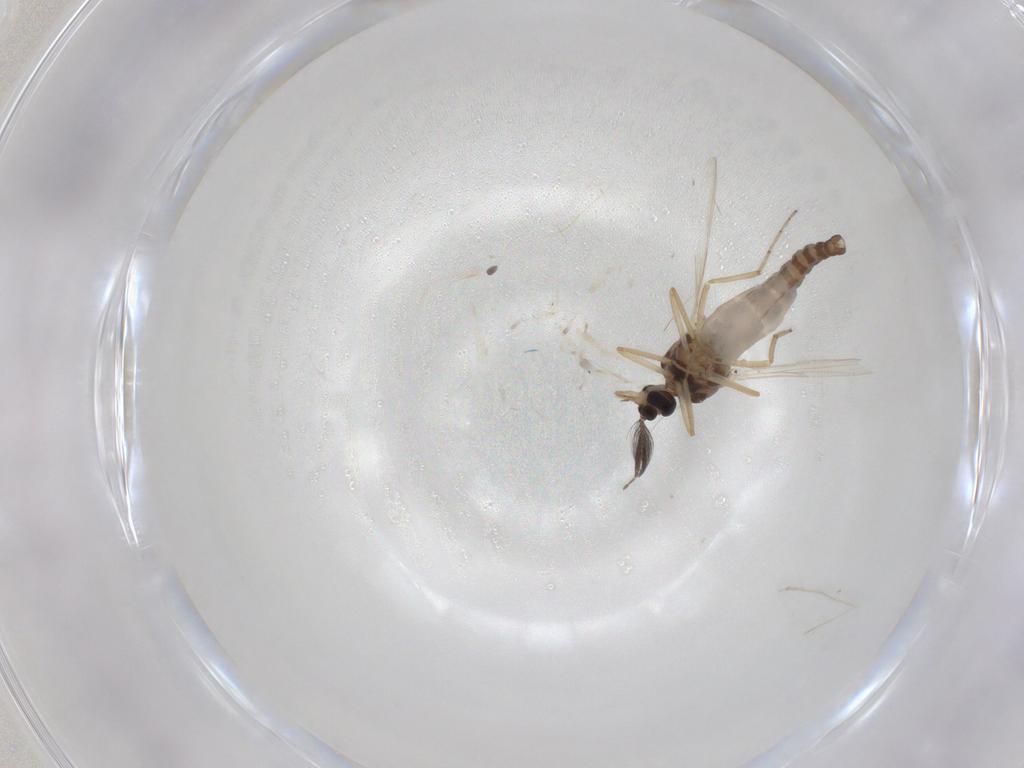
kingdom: Animalia
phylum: Arthropoda
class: Insecta
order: Diptera
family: Ceratopogonidae
